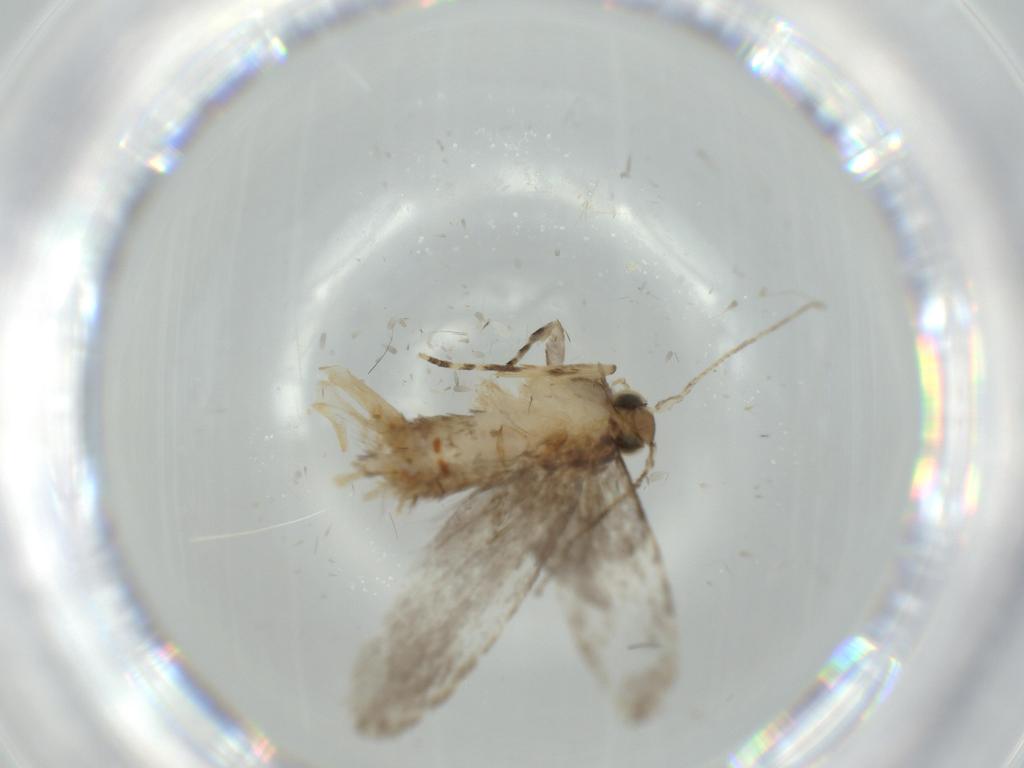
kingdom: Animalia
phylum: Arthropoda
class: Insecta
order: Lepidoptera
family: Tineidae
